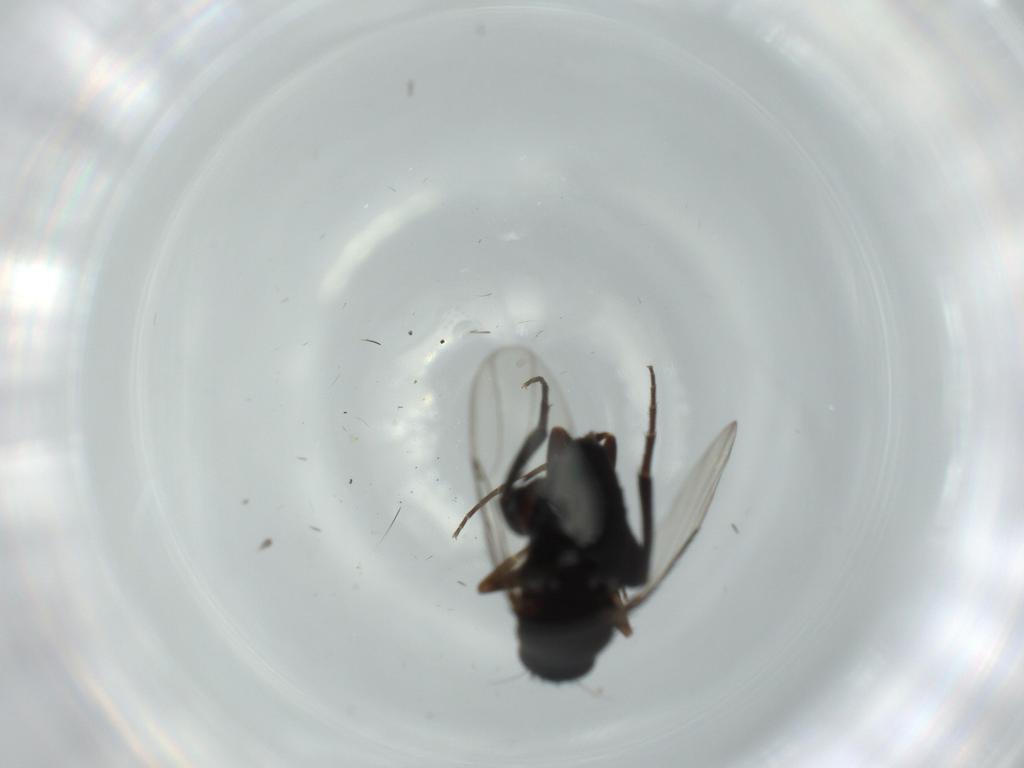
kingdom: Animalia
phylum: Arthropoda
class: Insecta
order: Diptera
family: Phoridae
